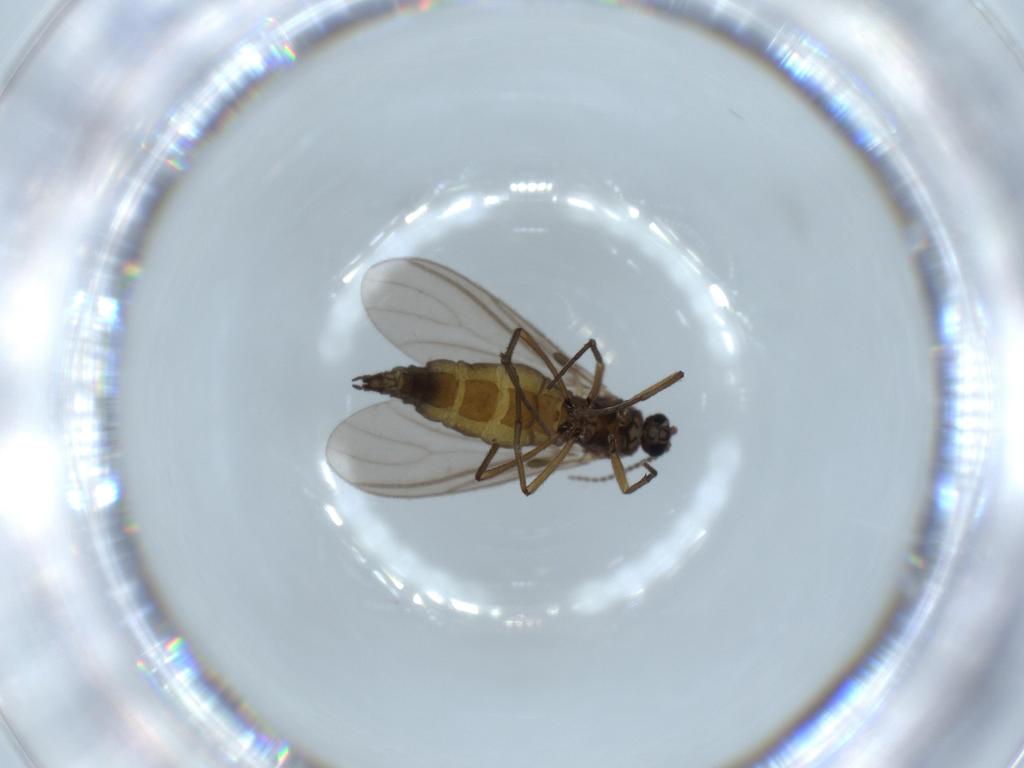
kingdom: Animalia
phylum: Arthropoda
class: Insecta
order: Diptera
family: Sciaridae
